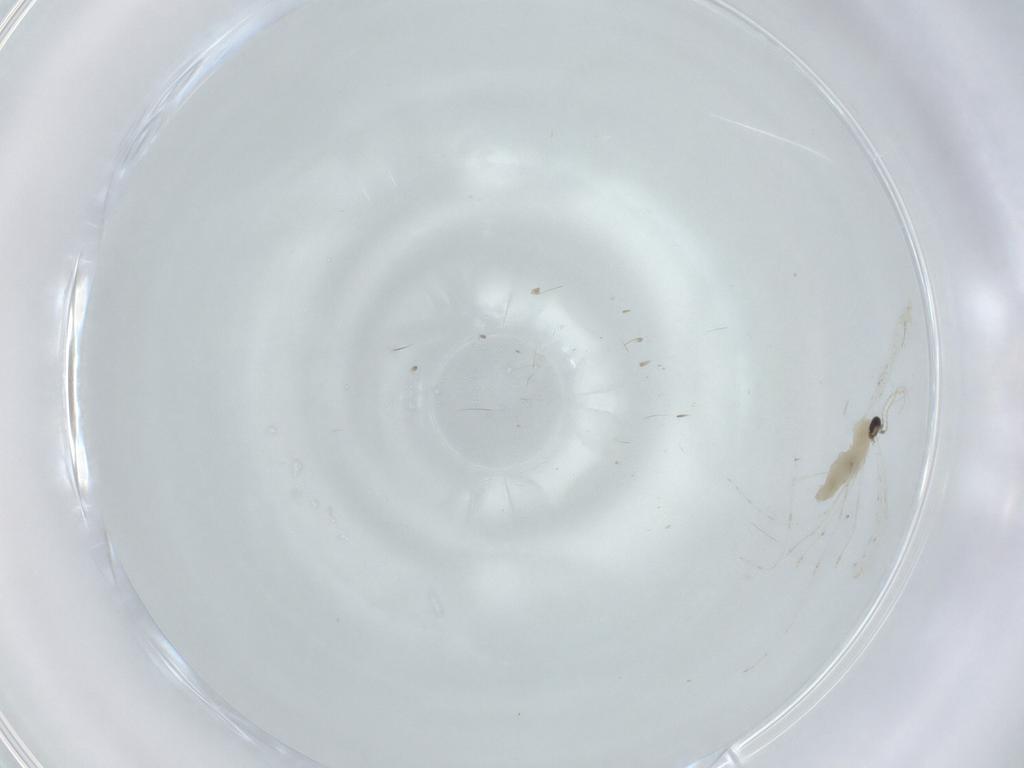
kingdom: Animalia
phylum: Arthropoda
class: Insecta
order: Diptera
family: Cecidomyiidae
